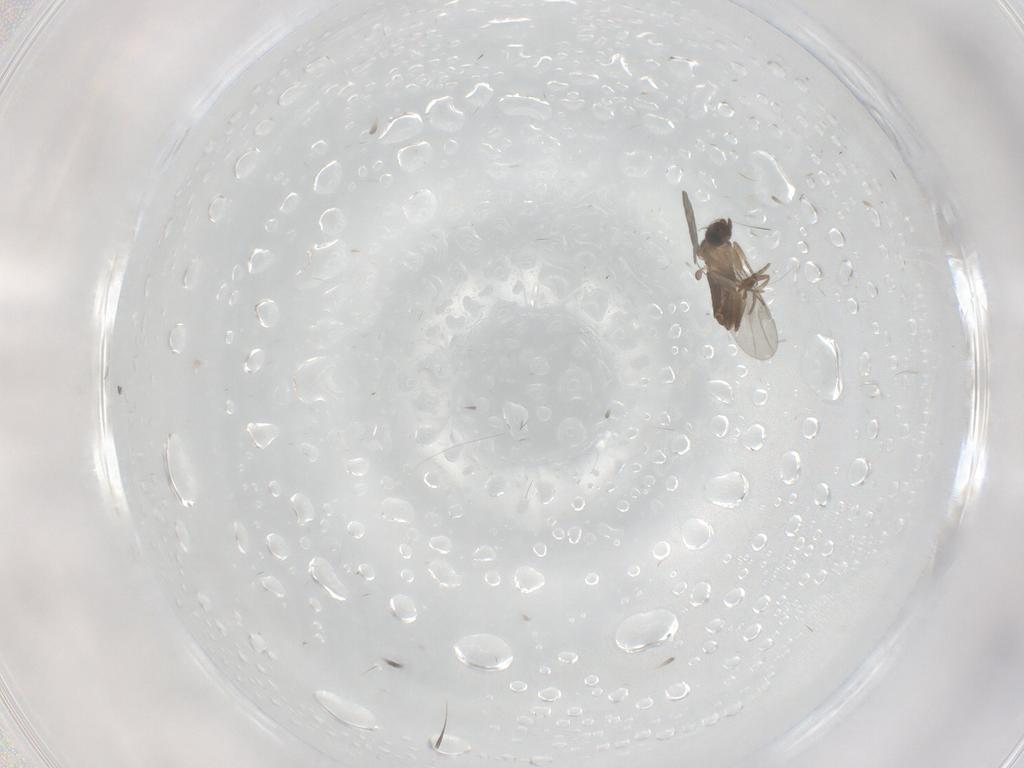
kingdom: Animalia
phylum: Arthropoda
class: Insecta
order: Diptera
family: Phoridae
